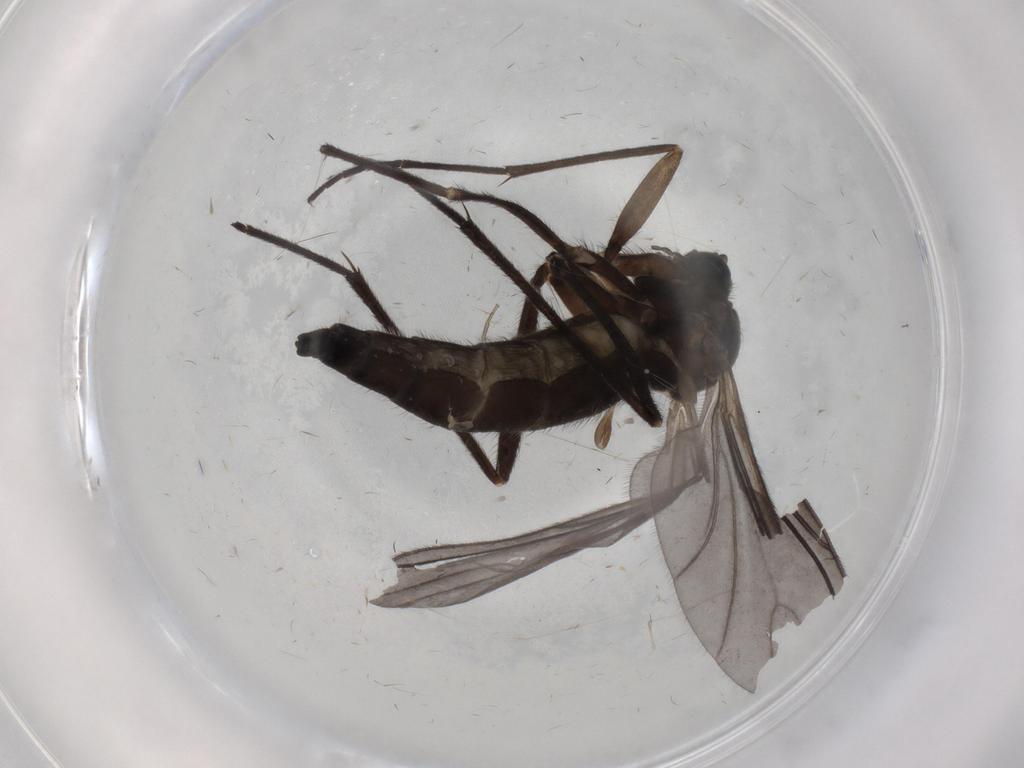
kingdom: Animalia
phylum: Arthropoda
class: Insecta
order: Diptera
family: Sciaridae
